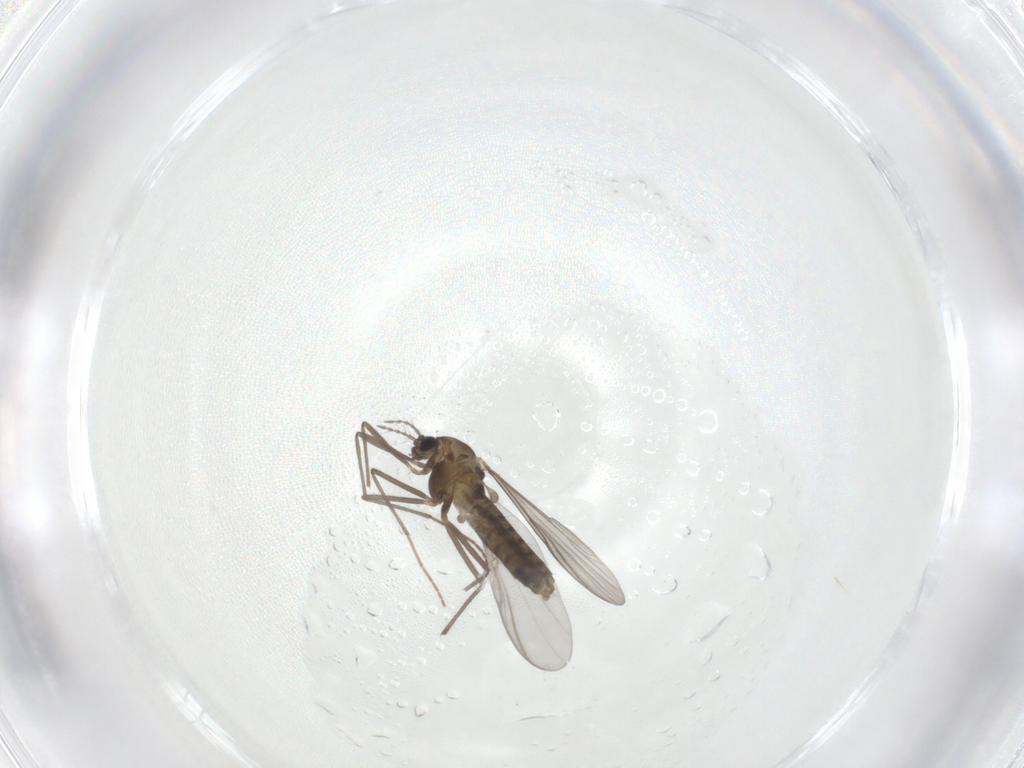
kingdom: Animalia
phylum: Arthropoda
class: Insecta
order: Diptera
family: Chironomidae
